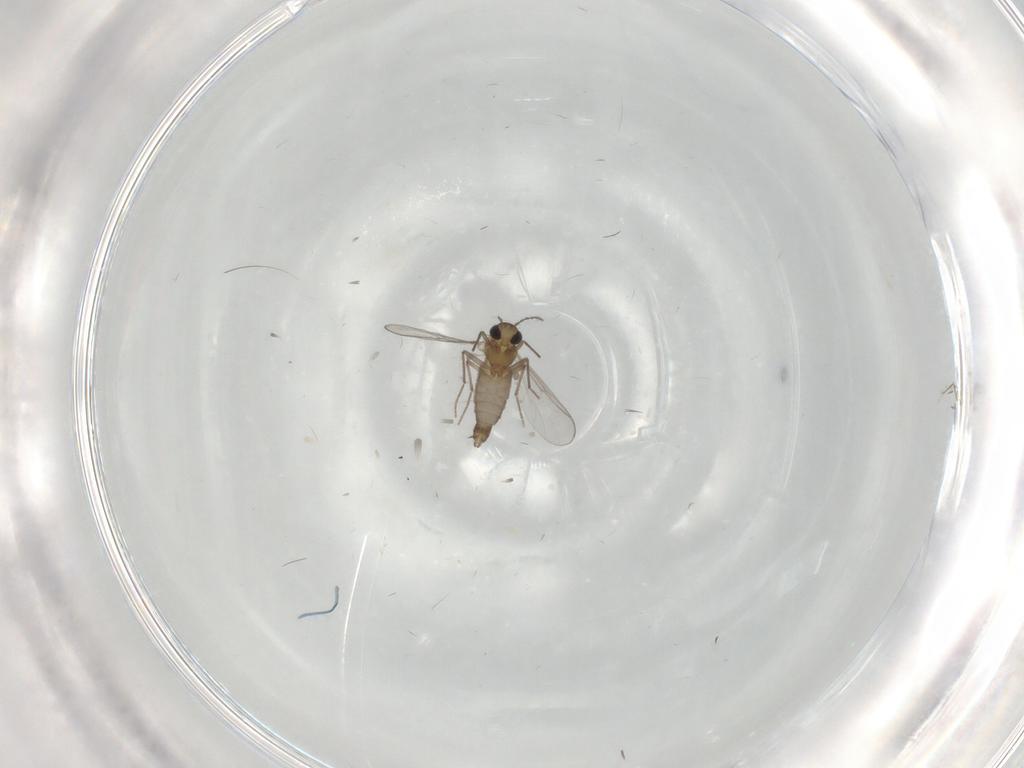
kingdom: Animalia
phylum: Arthropoda
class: Insecta
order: Diptera
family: Chironomidae
